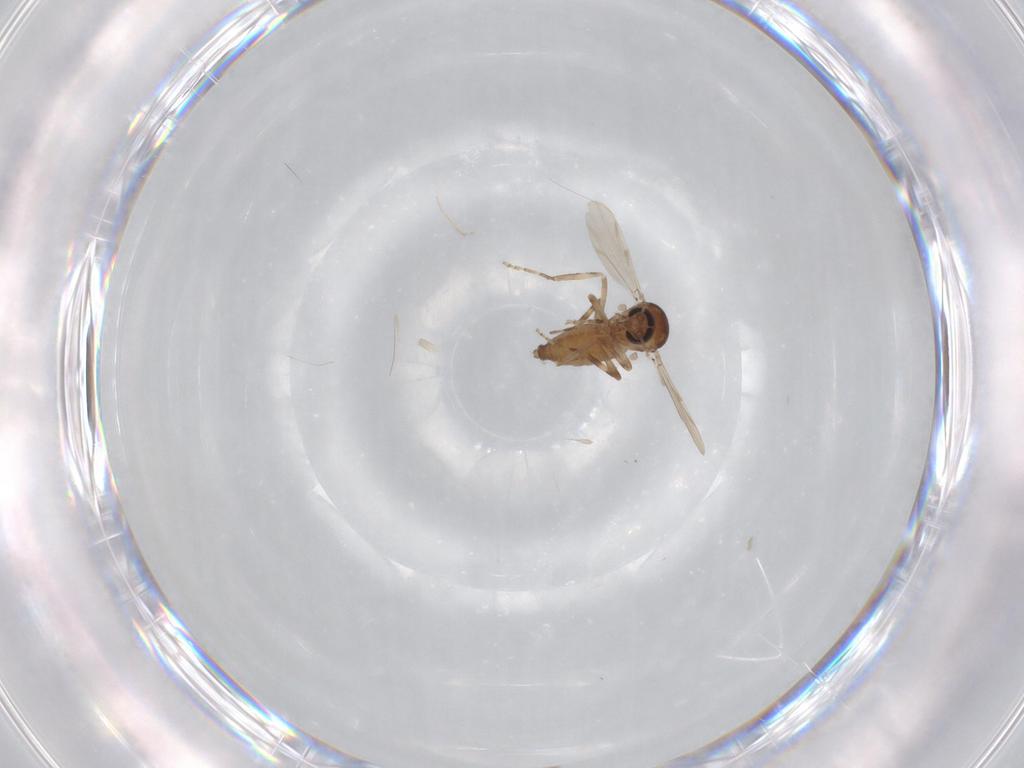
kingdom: Animalia
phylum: Arthropoda
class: Insecta
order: Diptera
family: Ceratopogonidae
